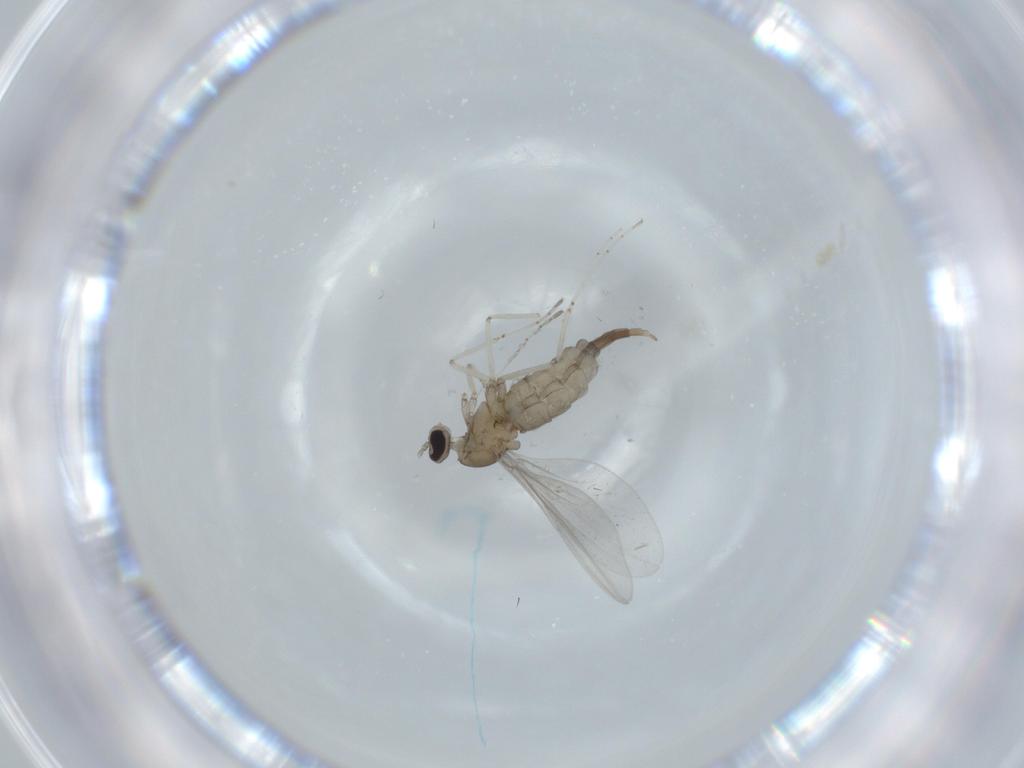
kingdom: Animalia
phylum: Arthropoda
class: Insecta
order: Diptera
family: Cecidomyiidae
